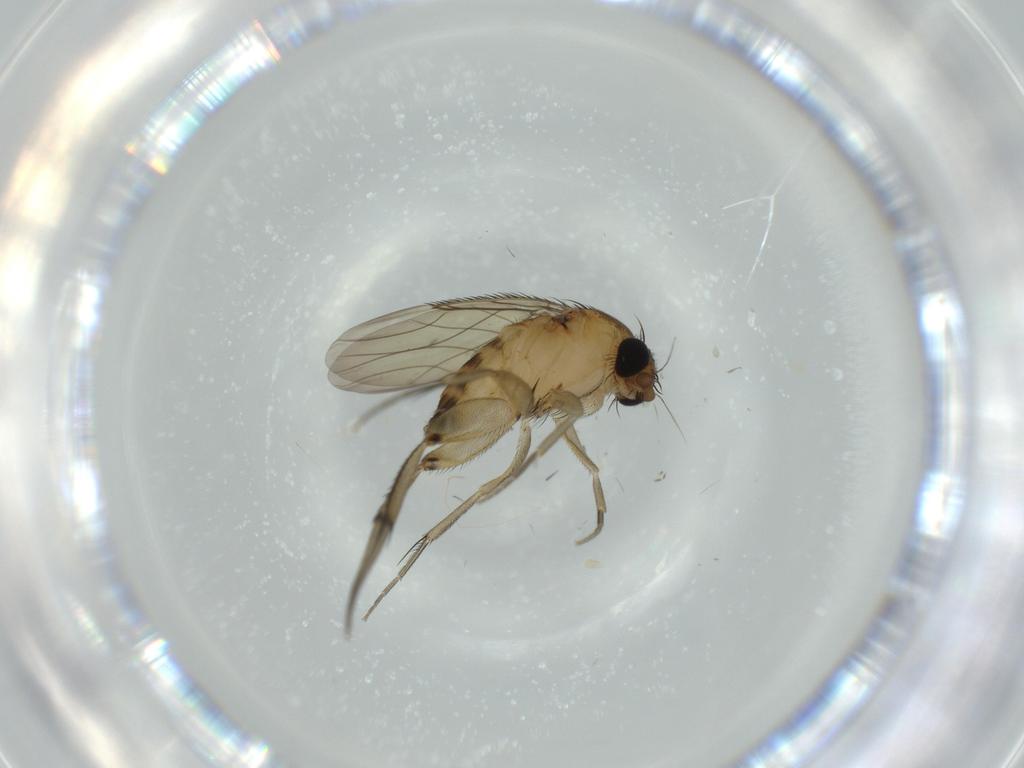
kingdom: Animalia
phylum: Arthropoda
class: Insecta
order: Diptera
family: Phoridae
